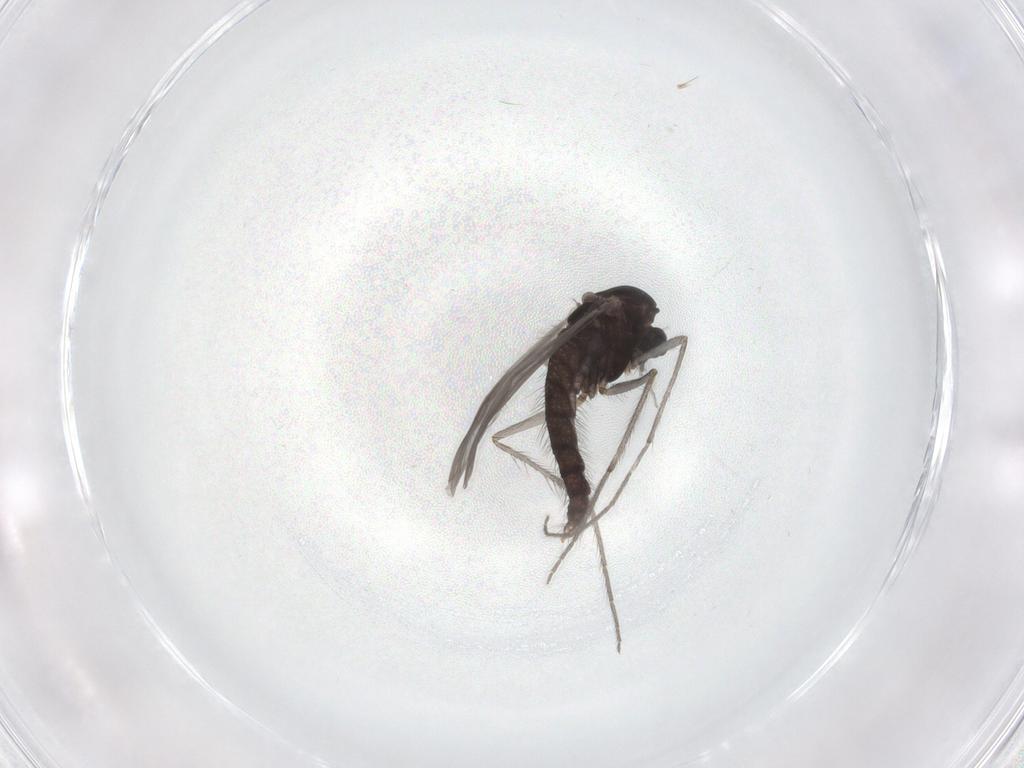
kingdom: Animalia
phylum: Arthropoda
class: Insecta
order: Diptera
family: Chironomidae
